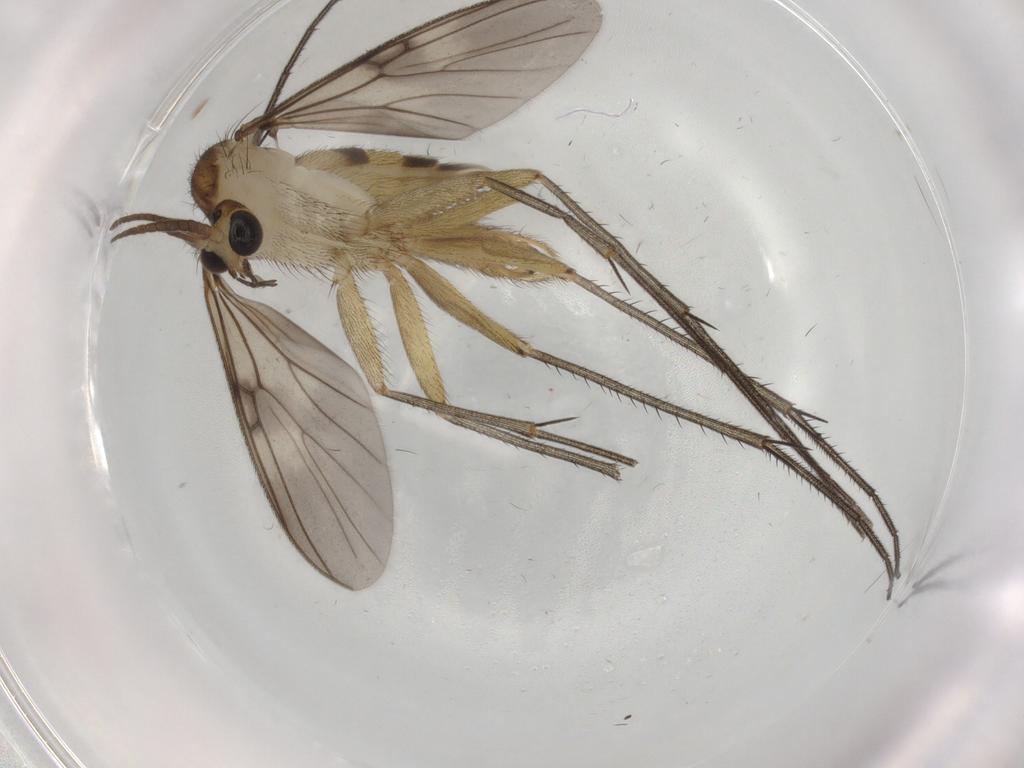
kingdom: Animalia
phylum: Arthropoda
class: Insecta
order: Diptera
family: Mycetophilidae
